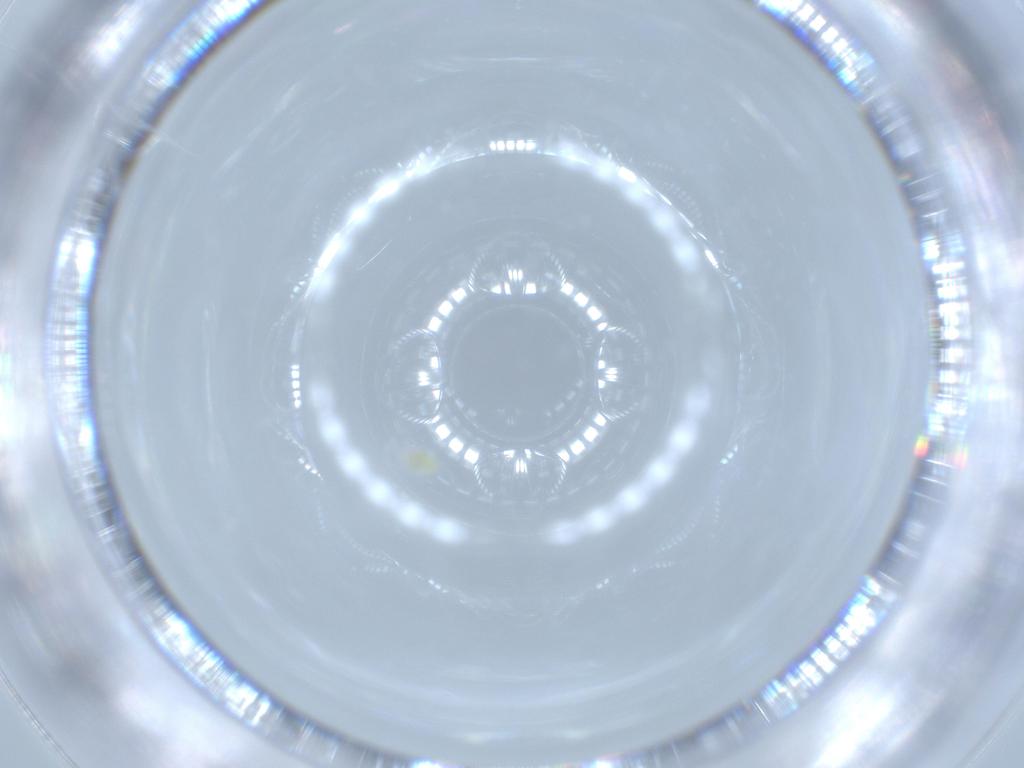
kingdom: Animalia
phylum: Arthropoda
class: Arachnida
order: Trombidiformes
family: Eupodidae
